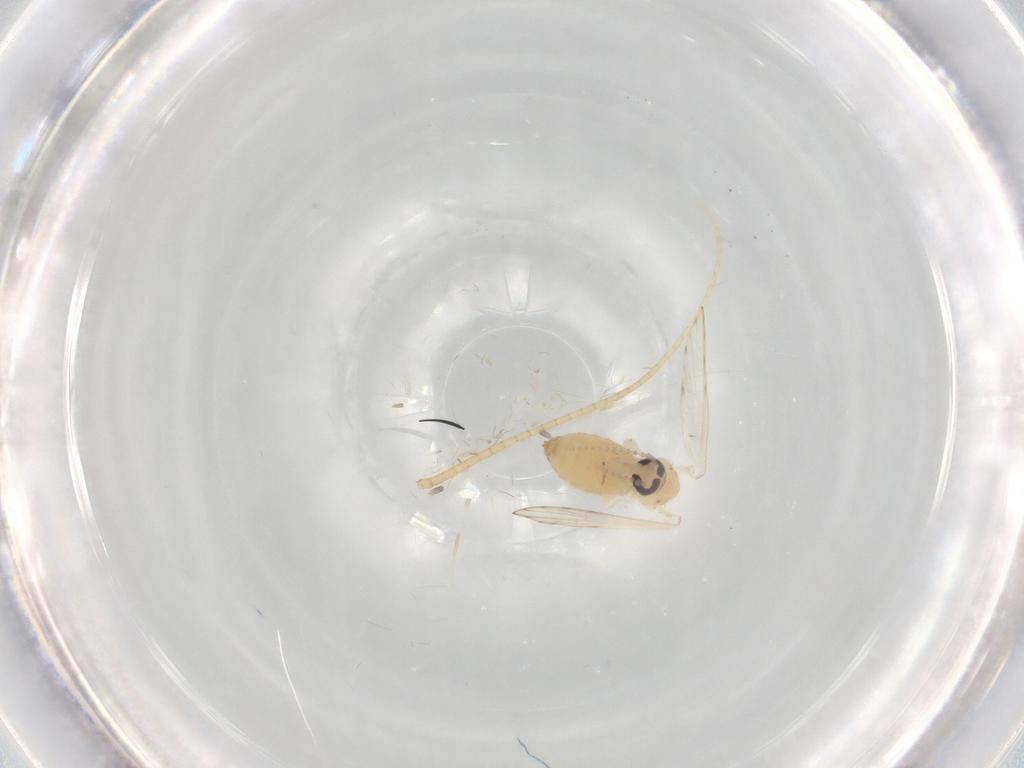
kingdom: Animalia
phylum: Arthropoda
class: Insecta
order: Diptera
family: Psychodidae
